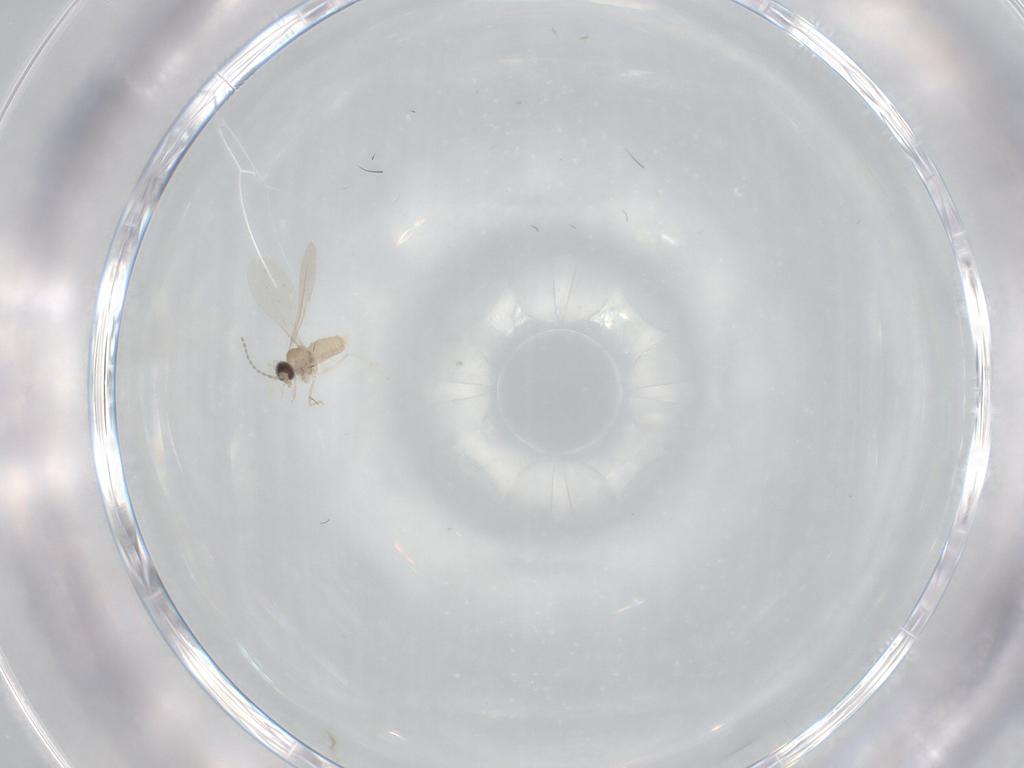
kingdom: Animalia
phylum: Arthropoda
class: Insecta
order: Diptera
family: Cecidomyiidae
